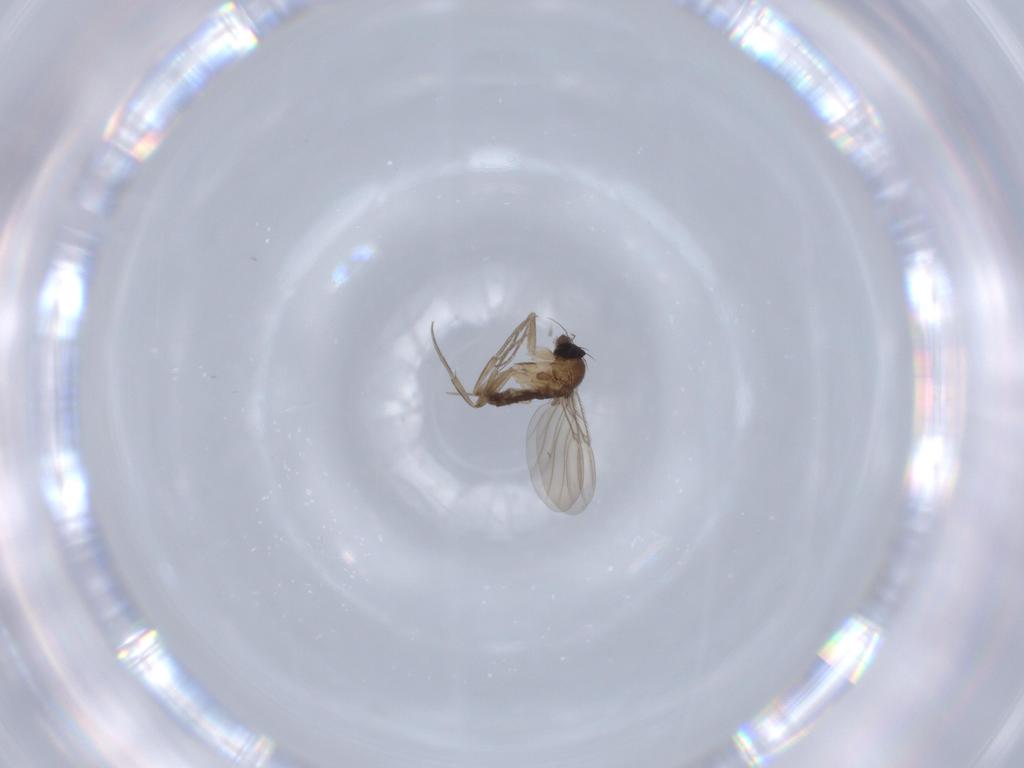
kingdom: Animalia
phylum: Arthropoda
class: Insecta
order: Diptera
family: Phoridae
